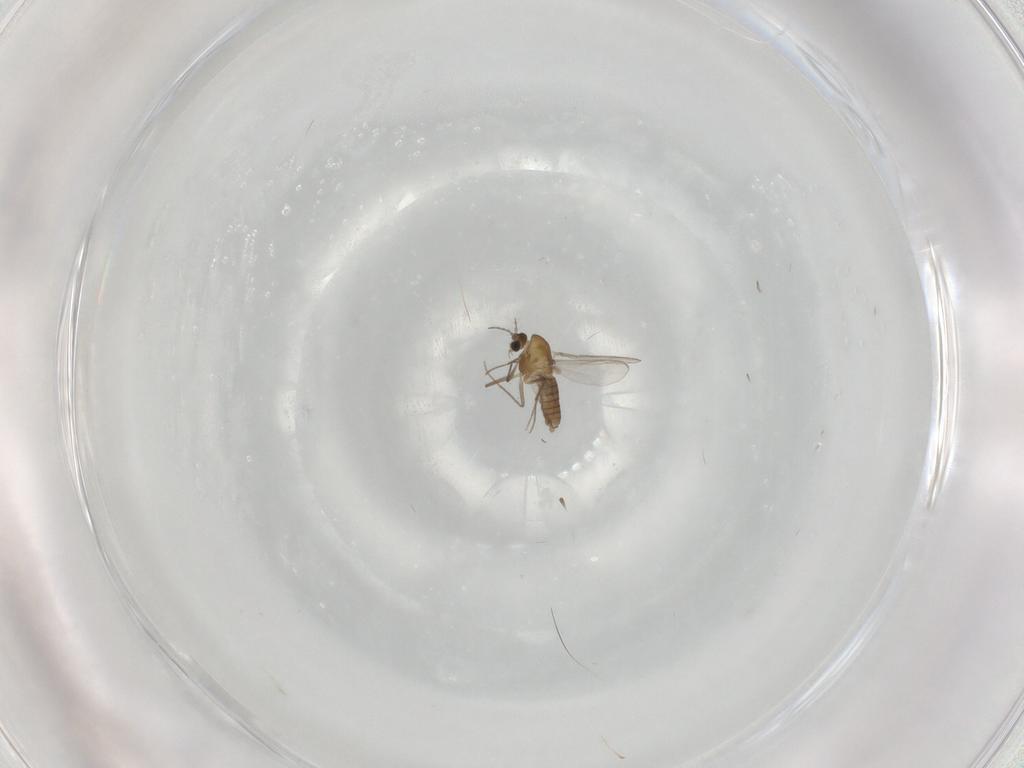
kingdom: Animalia
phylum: Arthropoda
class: Insecta
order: Diptera
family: Chironomidae
